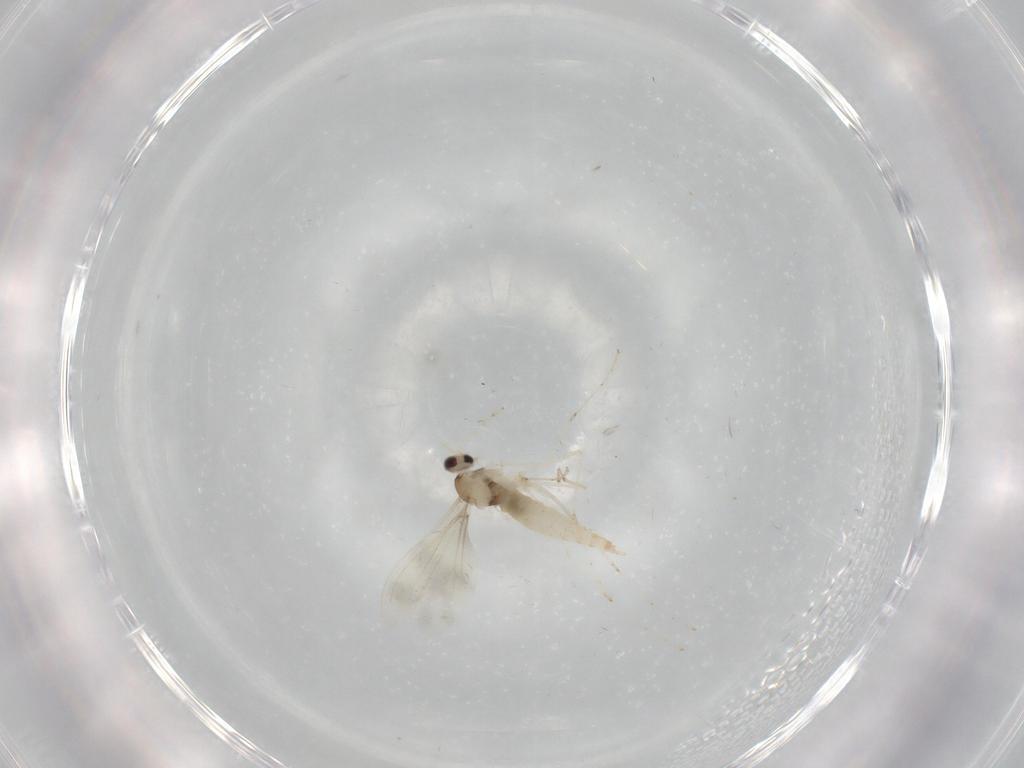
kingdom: Animalia
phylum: Arthropoda
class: Insecta
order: Diptera
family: Cecidomyiidae
